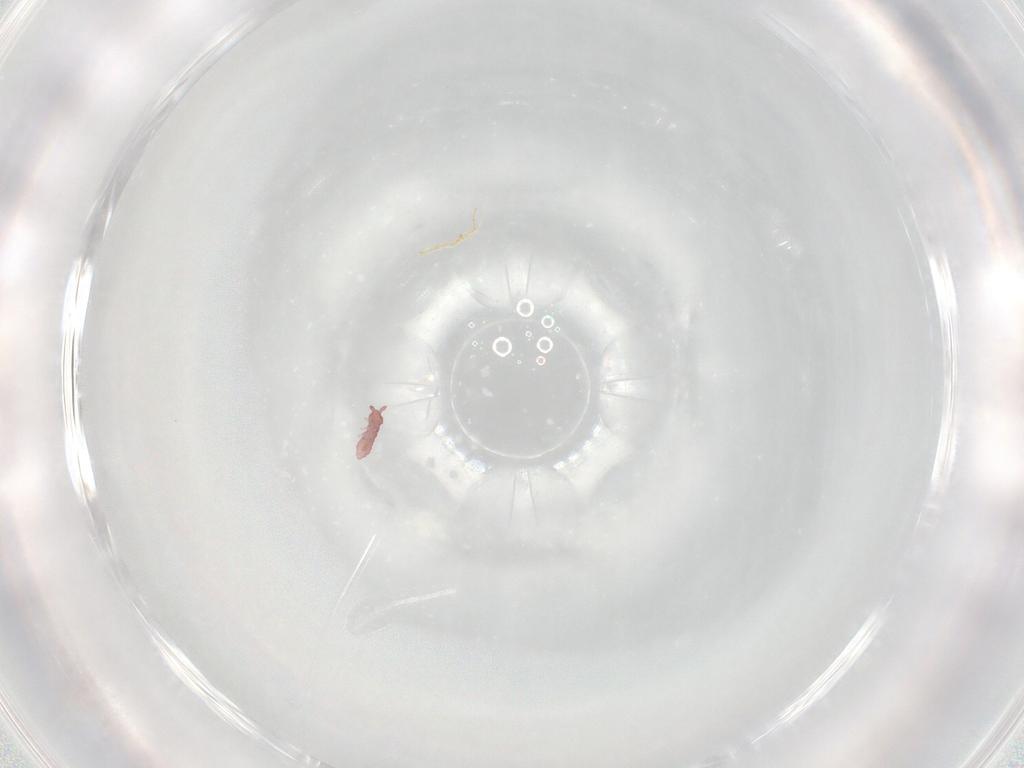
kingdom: Animalia
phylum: Arthropoda
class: Collembola
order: Poduromorpha
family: Hypogastruridae
